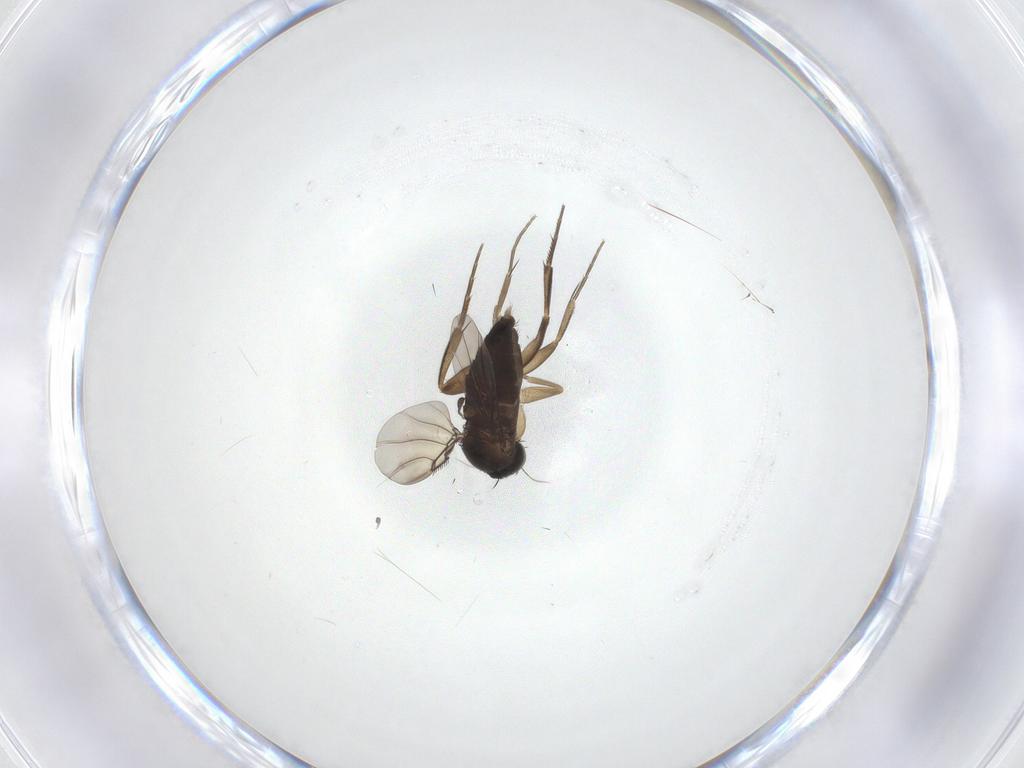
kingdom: Animalia
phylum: Arthropoda
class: Insecta
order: Diptera
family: Phoridae
